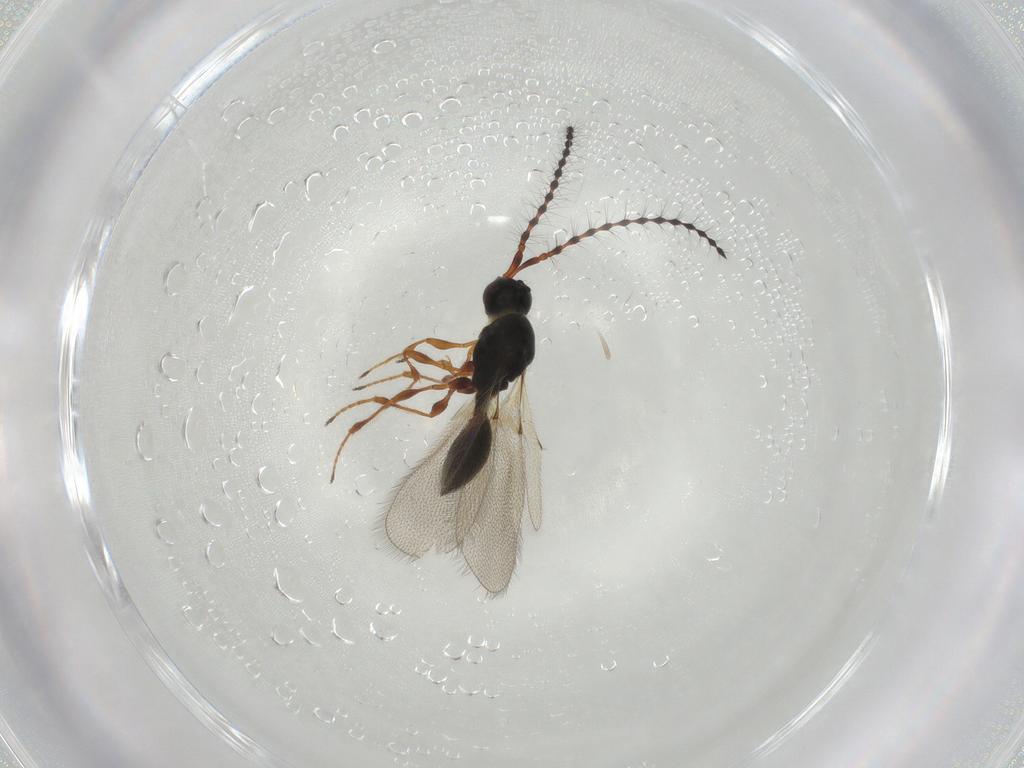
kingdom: Animalia
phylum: Arthropoda
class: Insecta
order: Hymenoptera
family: Diapriidae
